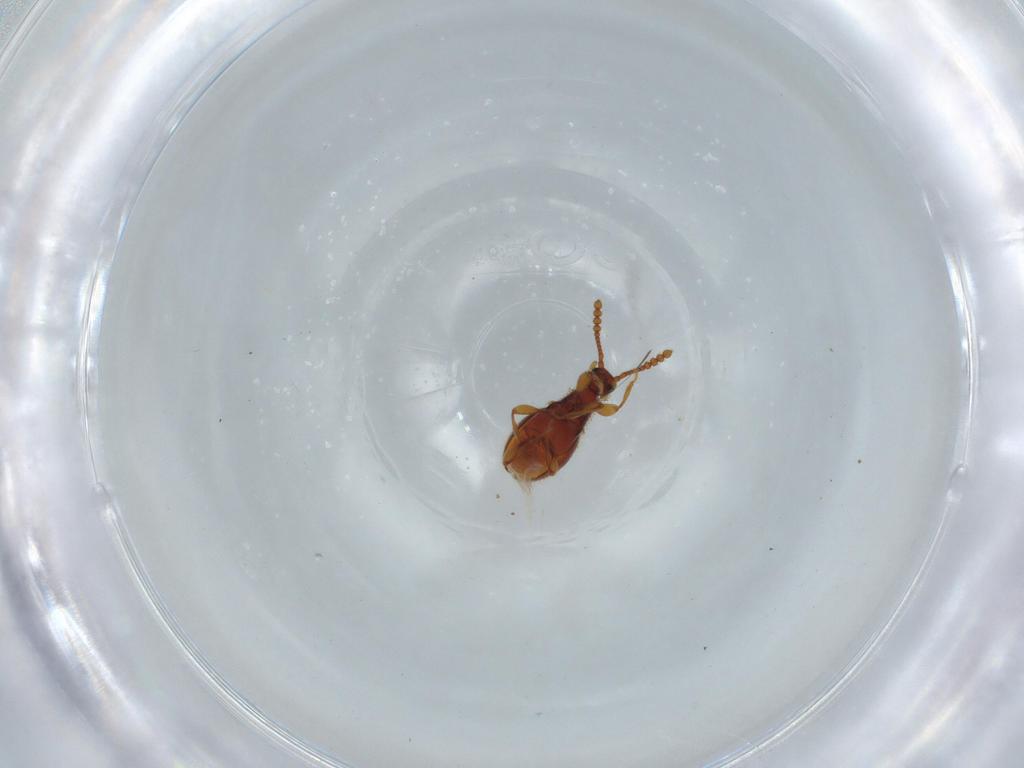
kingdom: Animalia
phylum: Arthropoda
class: Insecta
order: Coleoptera
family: Staphylinidae
